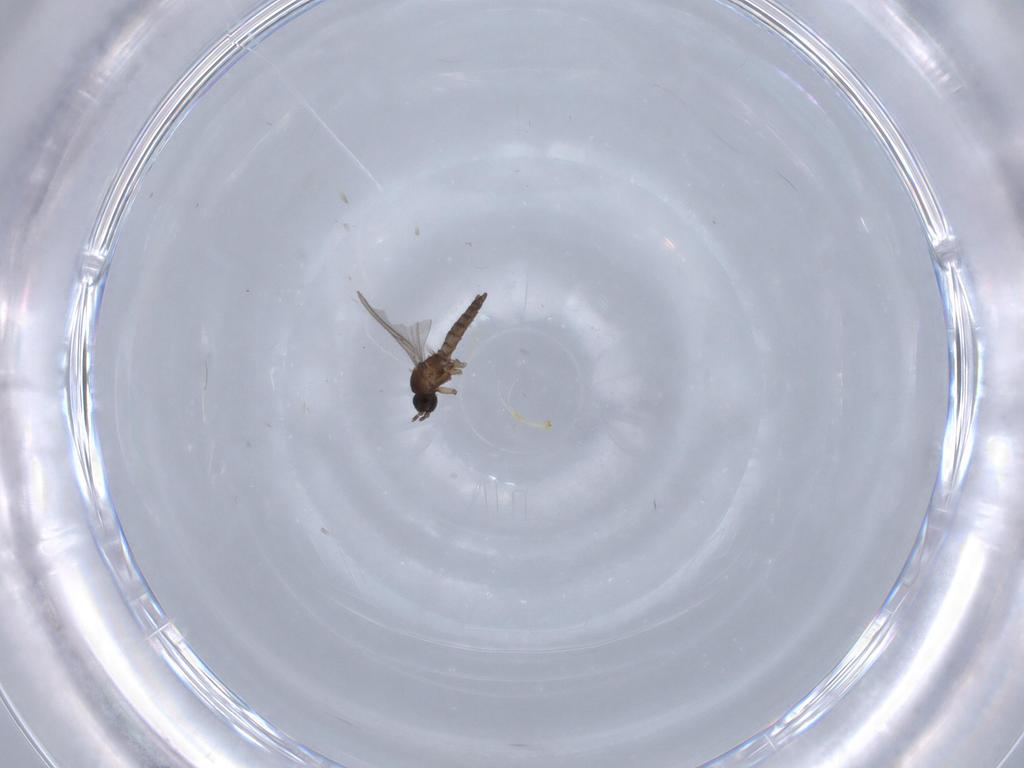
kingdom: Animalia
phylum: Arthropoda
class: Insecta
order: Diptera
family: Sciaridae
